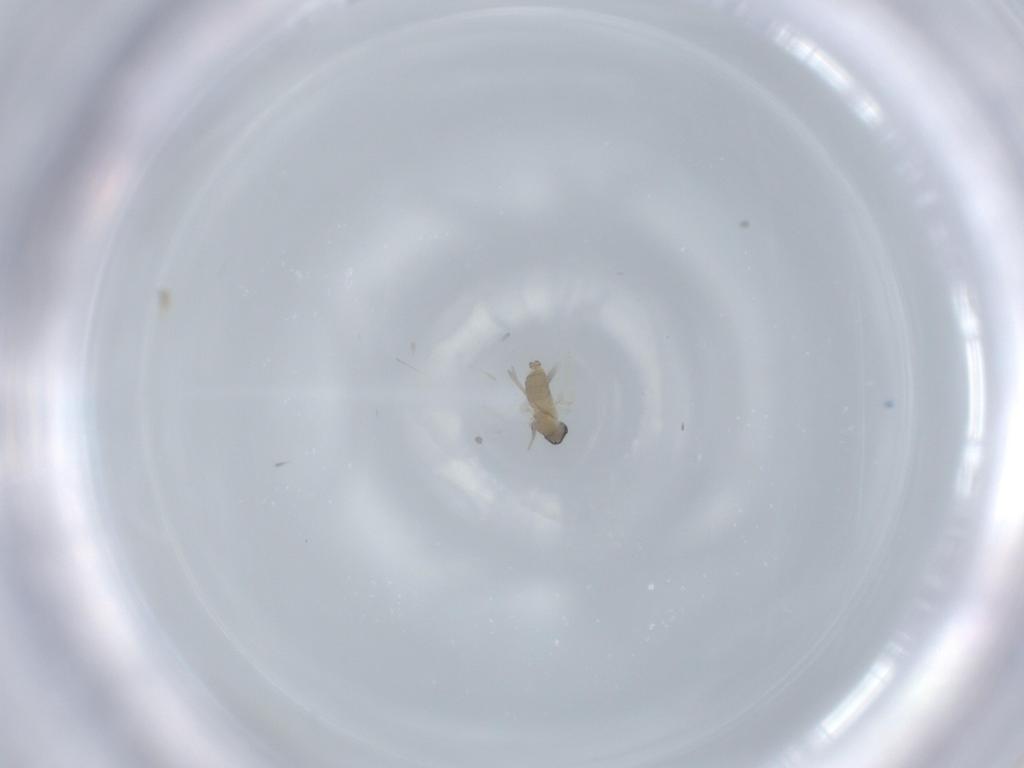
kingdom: Animalia
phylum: Arthropoda
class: Insecta
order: Diptera
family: Cecidomyiidae
